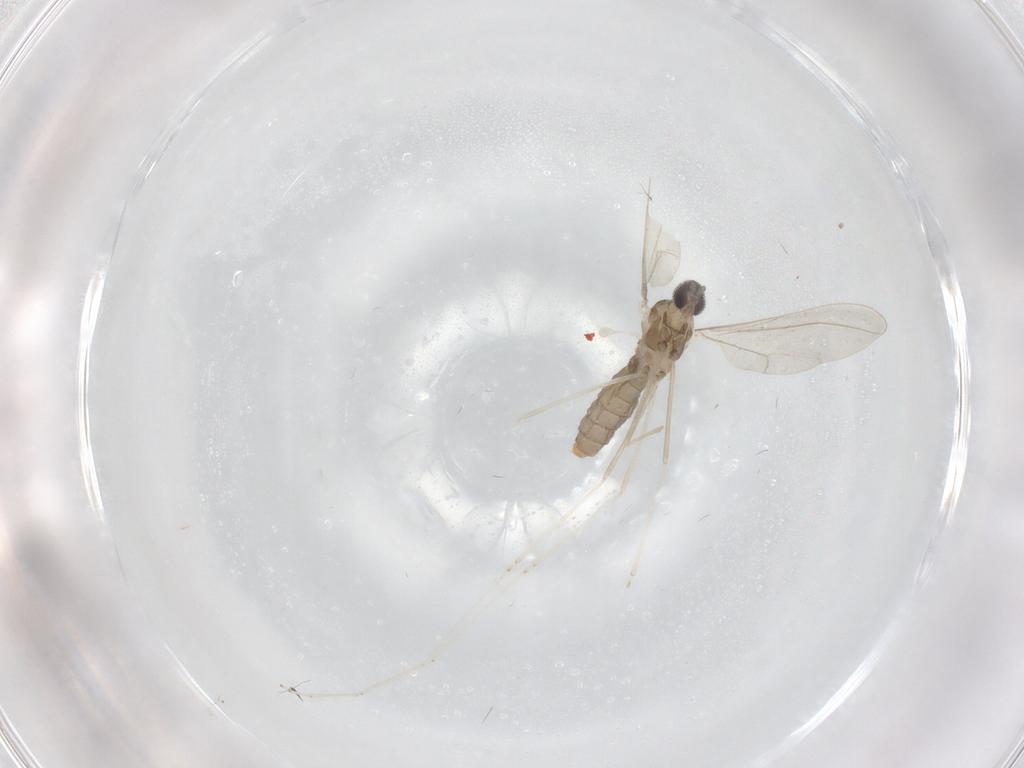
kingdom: Animalia
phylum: Arthropoda
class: Insecta
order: Diptera
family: Cecidomyiidae
